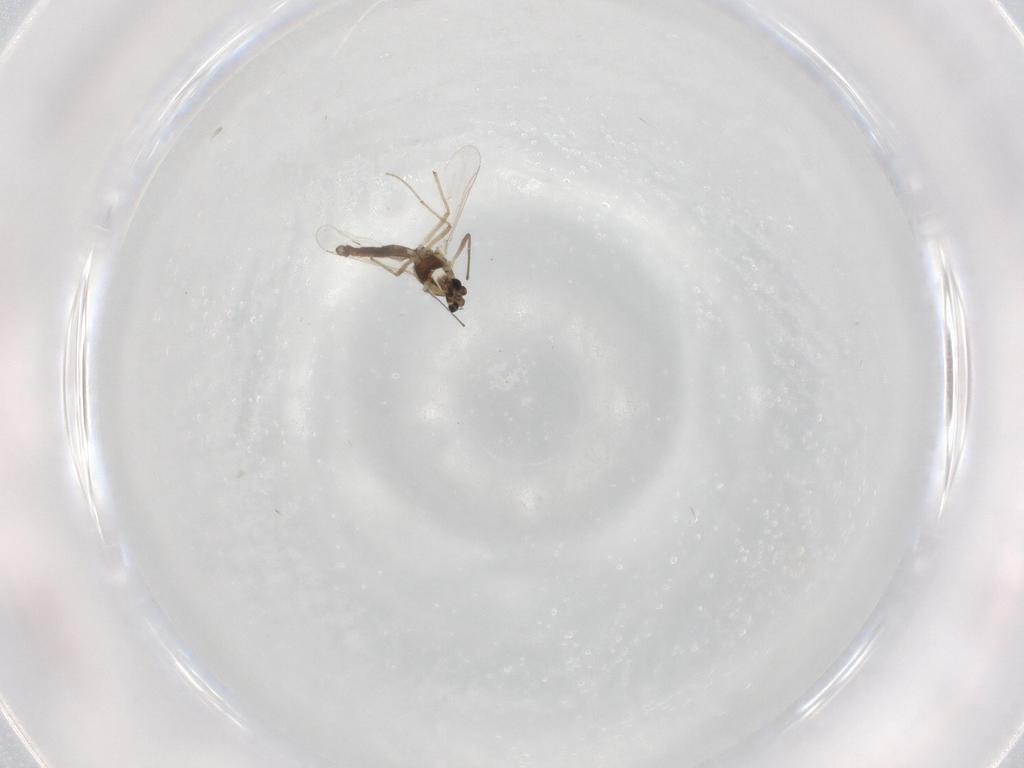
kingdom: Animalia
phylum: Arthropoda
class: Insecta
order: Diptera
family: Chironomidae
